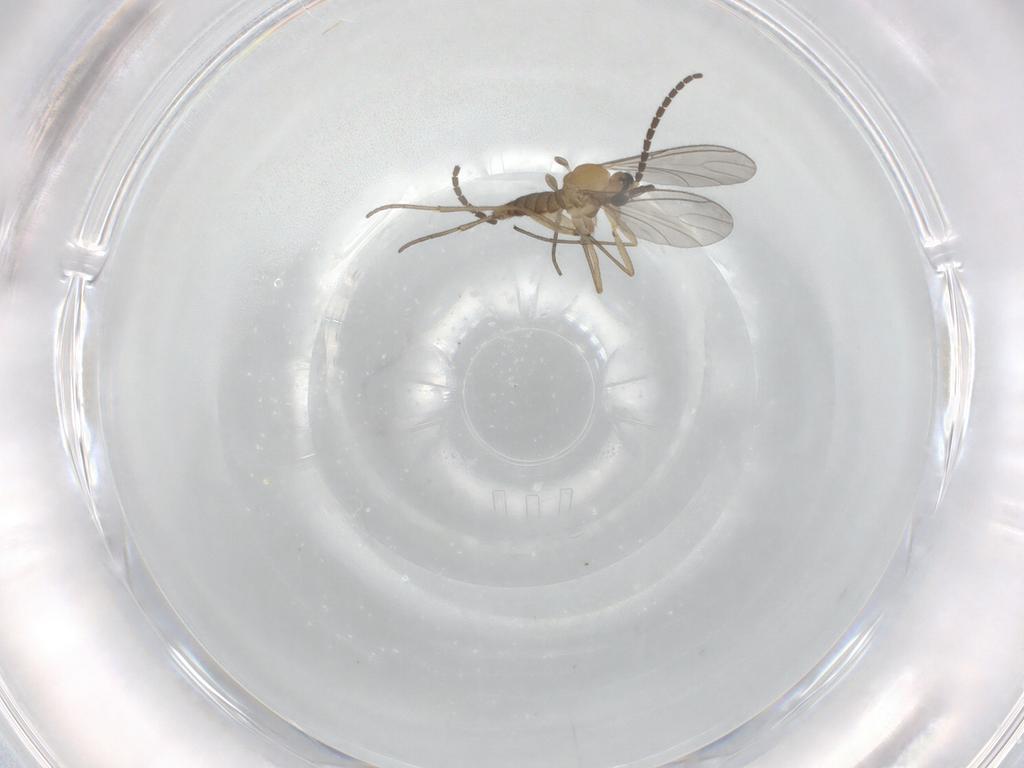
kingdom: Animalia
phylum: Arthropoda
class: Insecta
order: Diptera
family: Sciaridae
